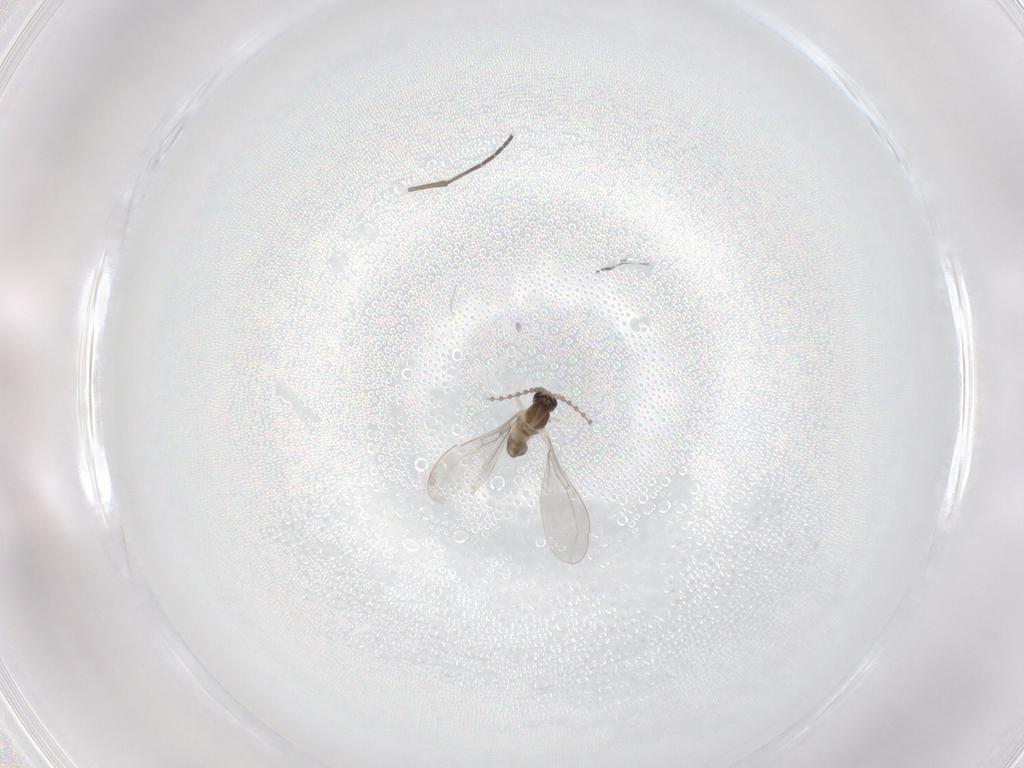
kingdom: Animalia
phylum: Arthropoda
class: Insecta
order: Diptera
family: Cecidomyiidae
